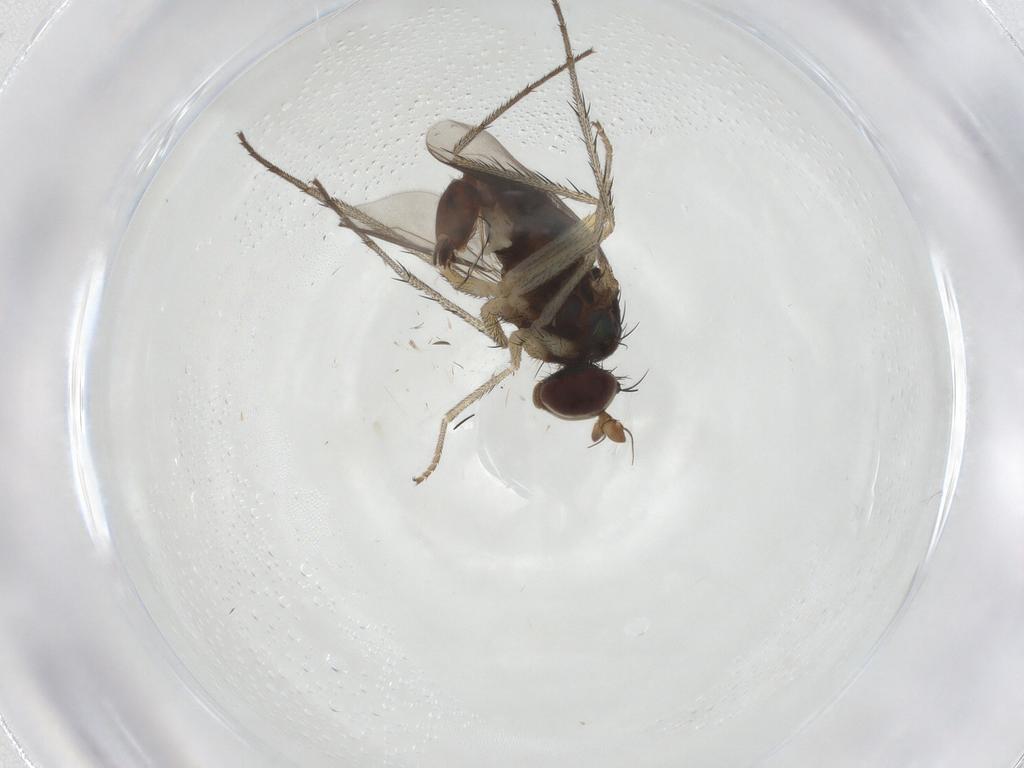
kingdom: Animalia
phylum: Arthropoda
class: Insecta
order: Diptera
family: Dolichopodidae
